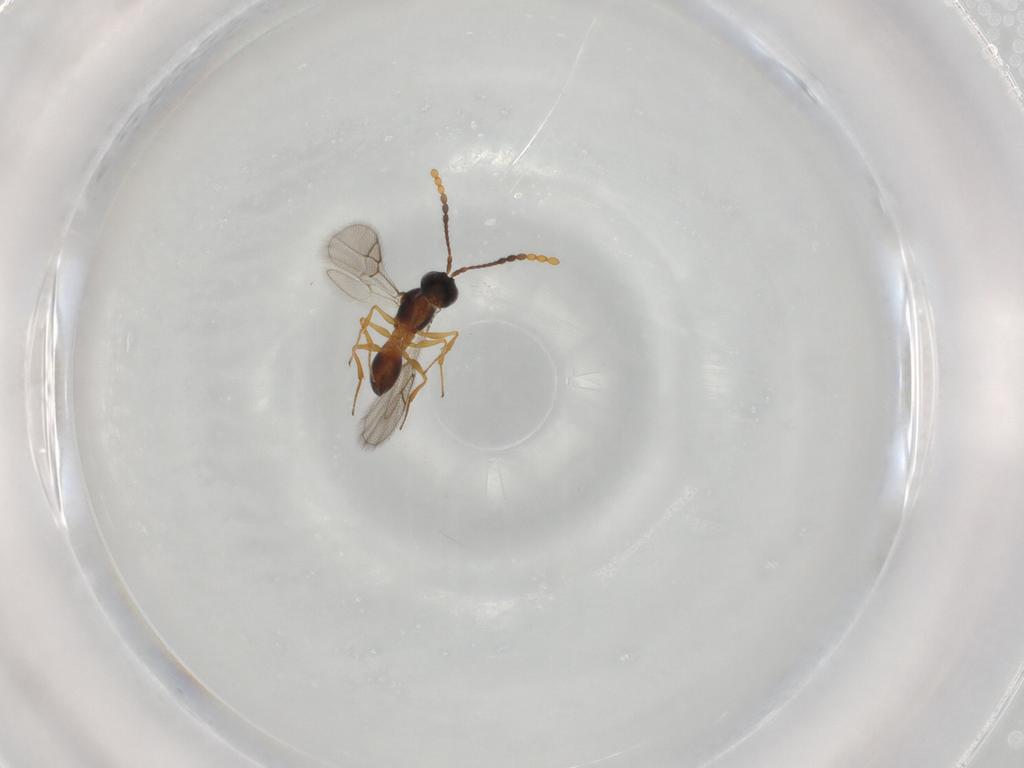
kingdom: Animalia
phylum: Arthropoda
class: Insecta
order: Hymenoptera
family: Figitidae
